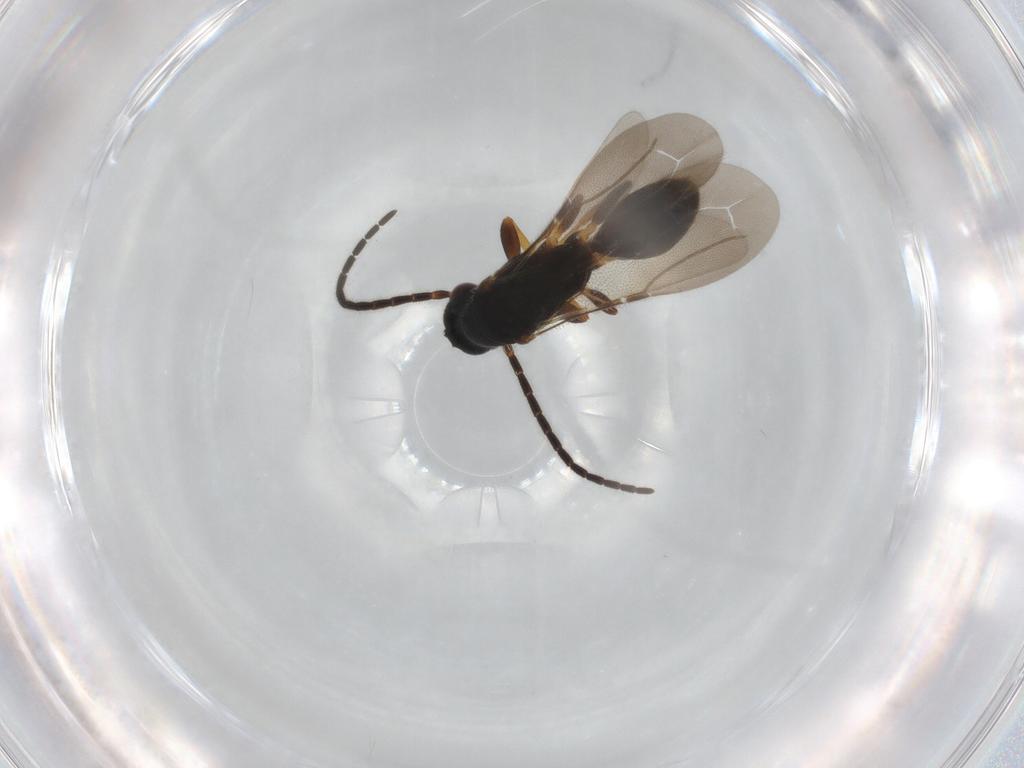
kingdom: Animalia
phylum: Arthropoda
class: Insecta
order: Hymenoptera
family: Bethylidae
